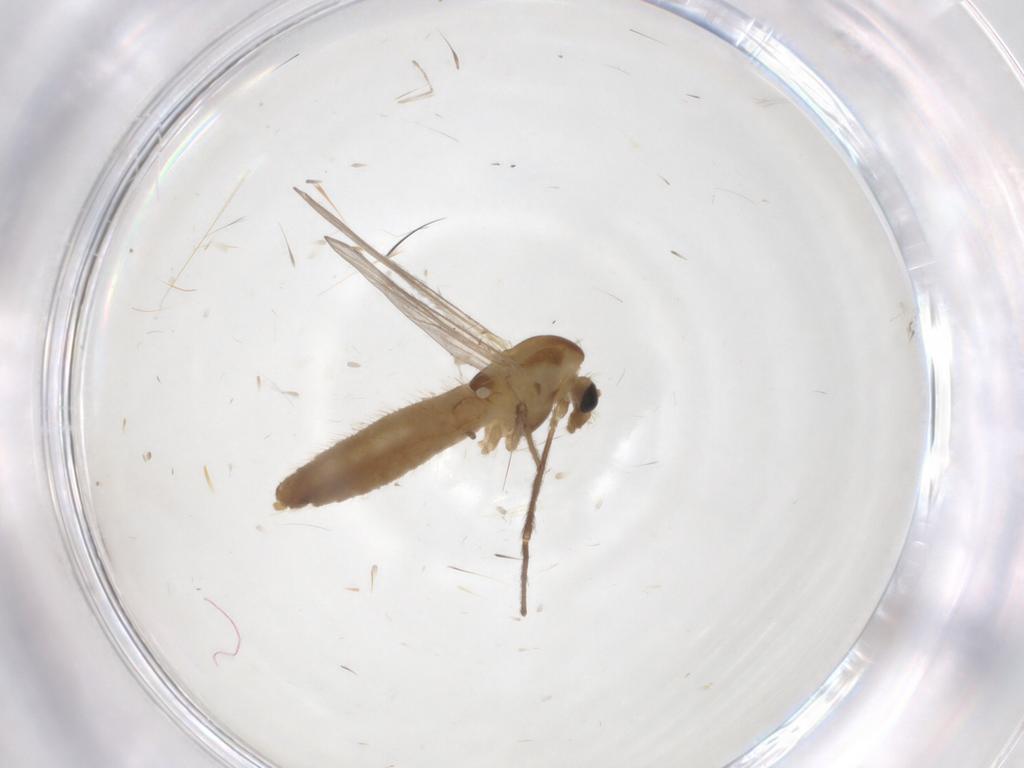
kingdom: Animalia
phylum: Arthropoda
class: Insecta
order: Diptera
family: Chironomidae
